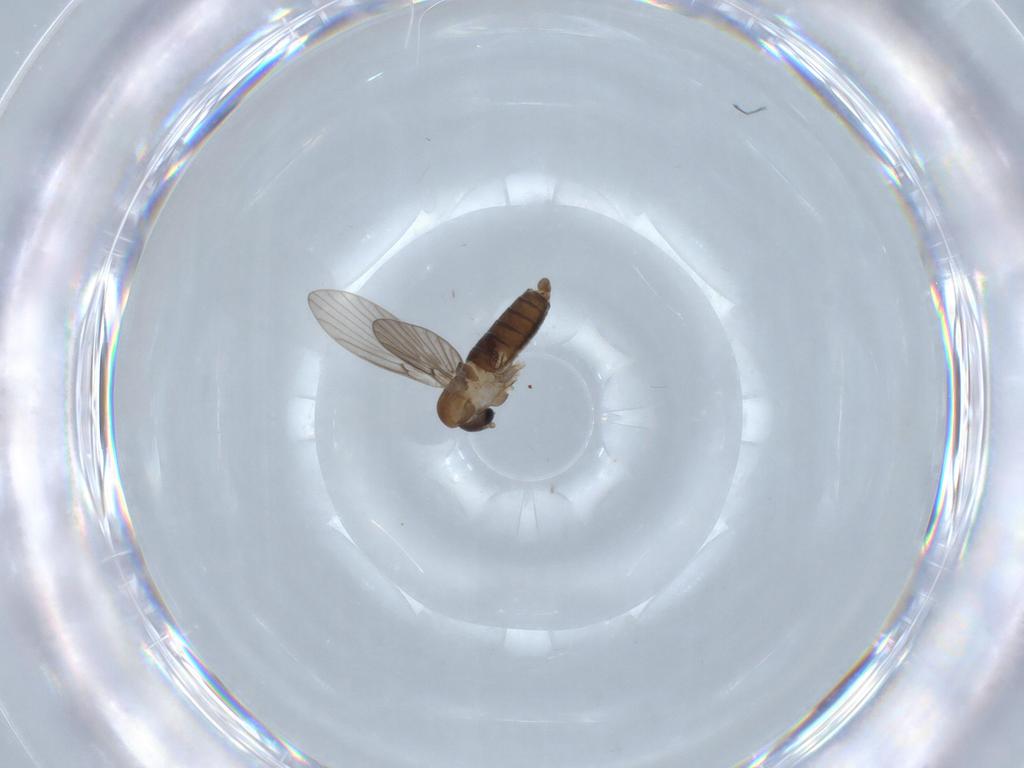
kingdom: Animalia
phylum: Arthropoda
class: Insecta
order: Diptera
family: Psychodidae
